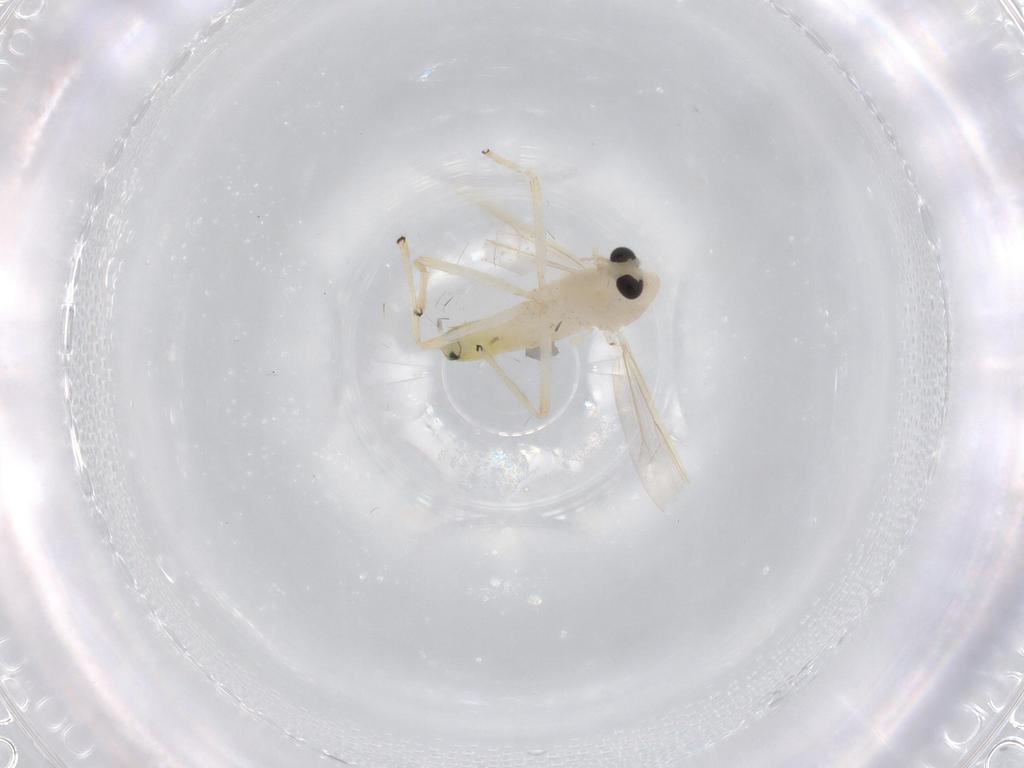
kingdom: Animalia
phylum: Arthropoda
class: Insecta
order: Diptera
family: Chironomidae
